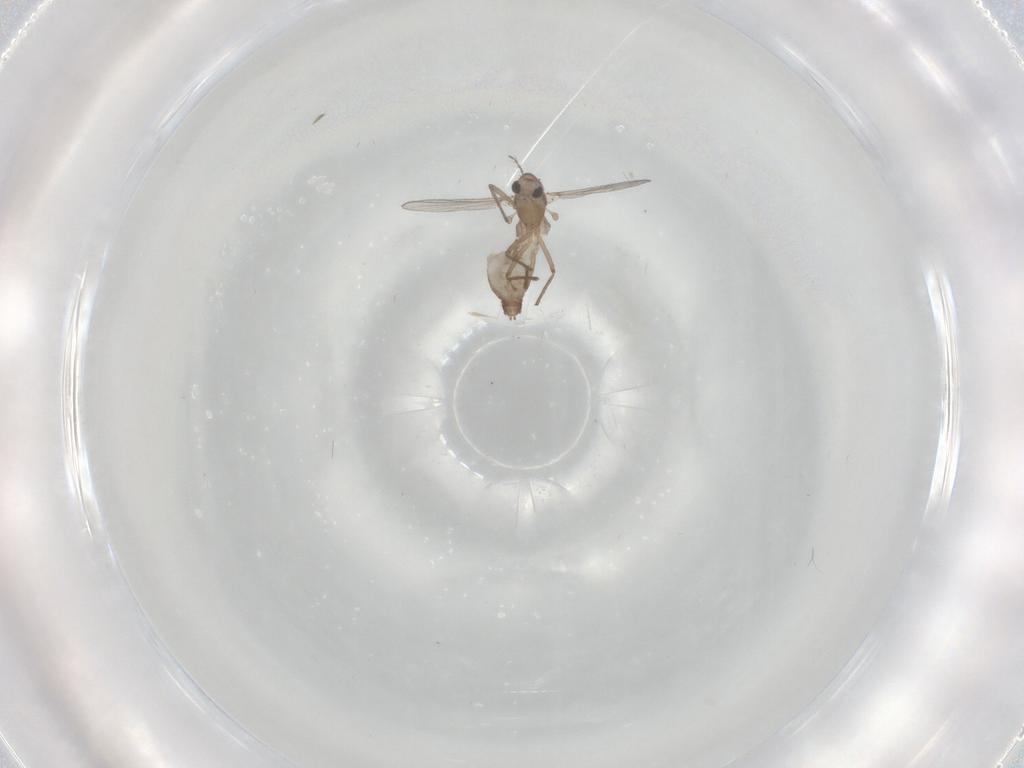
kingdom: Animalia
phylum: Arthropoda
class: Insecta
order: Diptera
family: Chironomidae
